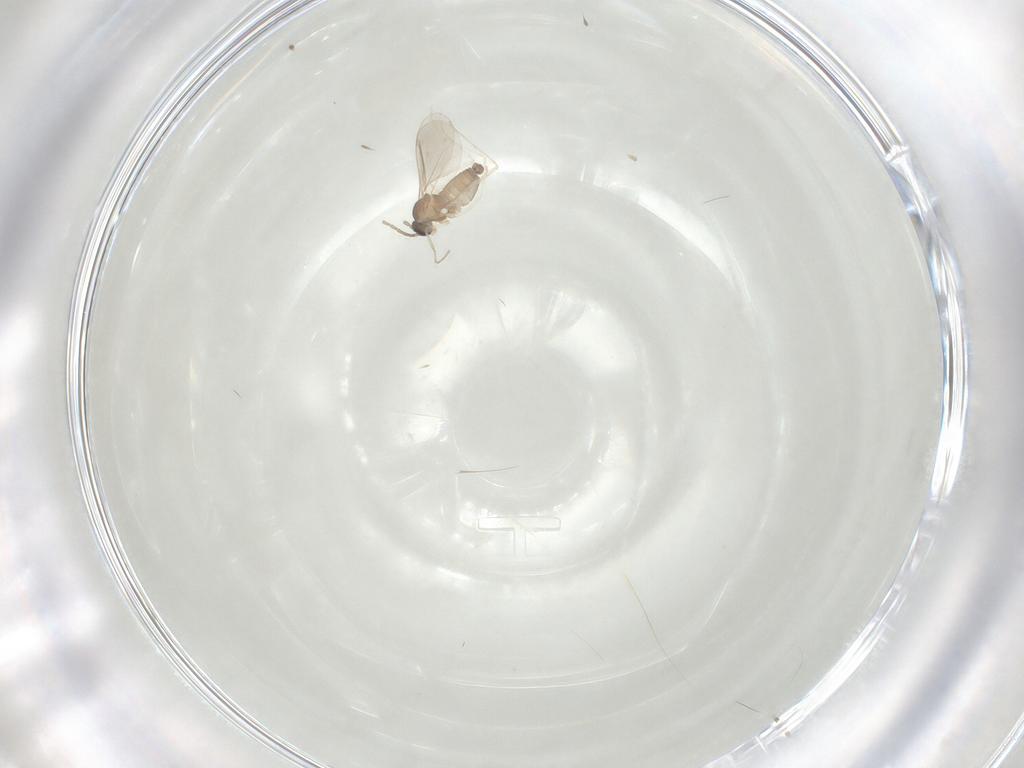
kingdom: Animalia
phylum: Arthropoda
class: Insecta
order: Diptera
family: Cecidomyiidae
